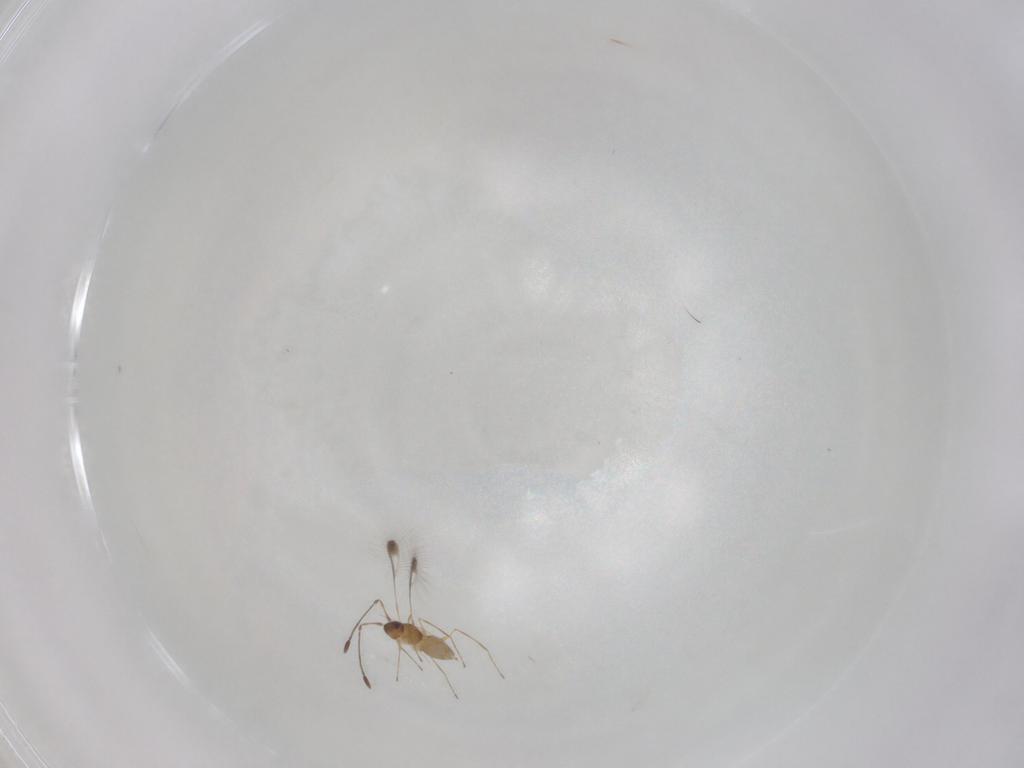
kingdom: Animalia
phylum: Arthropoda
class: Insecta
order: Hymenoptera
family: Mymaridae
